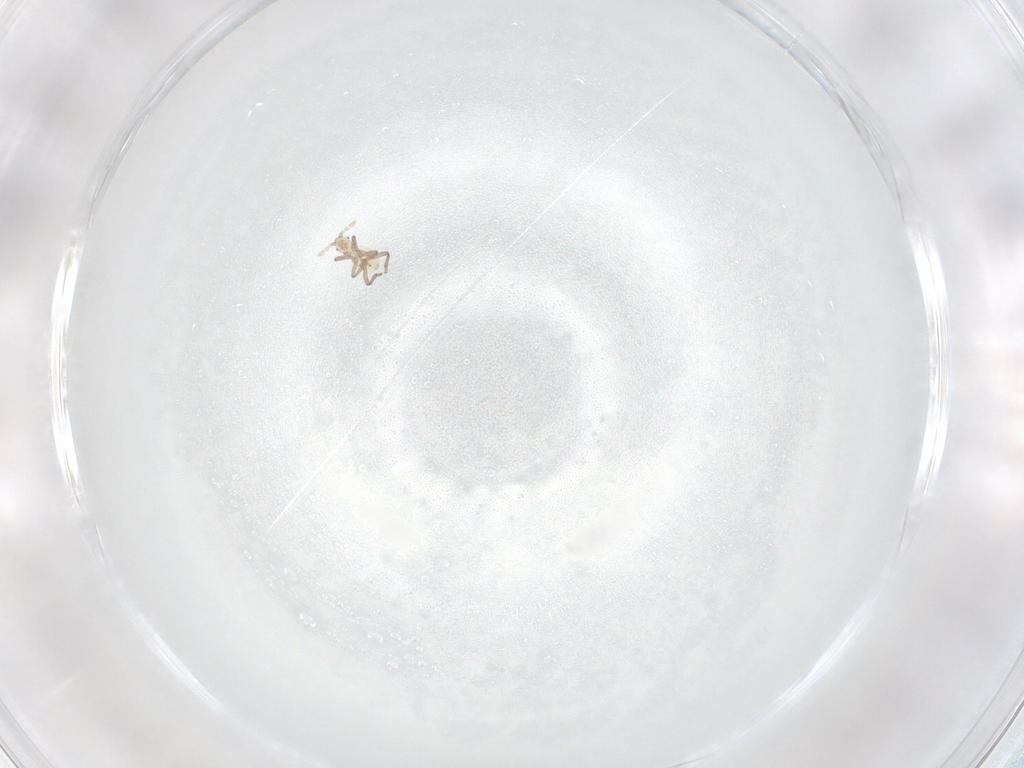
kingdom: Animalia
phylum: Arthropoda
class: Insecta
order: Hemiptera
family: Aphididae
